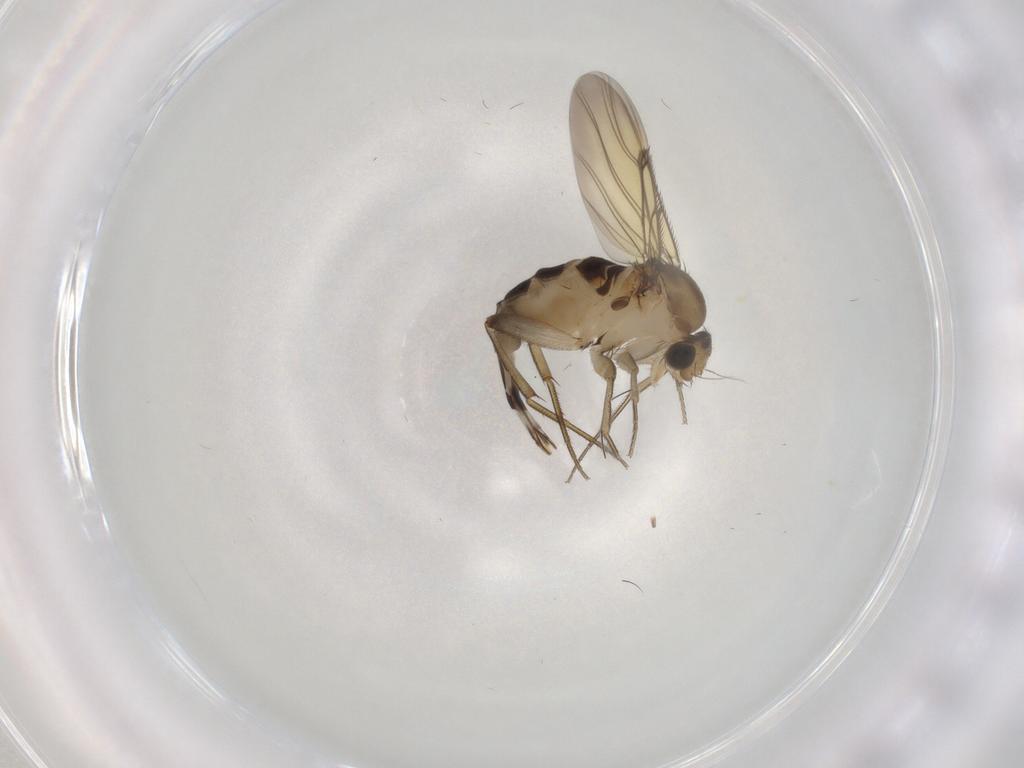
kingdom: Animalia
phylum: Arthropoda
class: Insecta
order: Diptera
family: Phoridae
